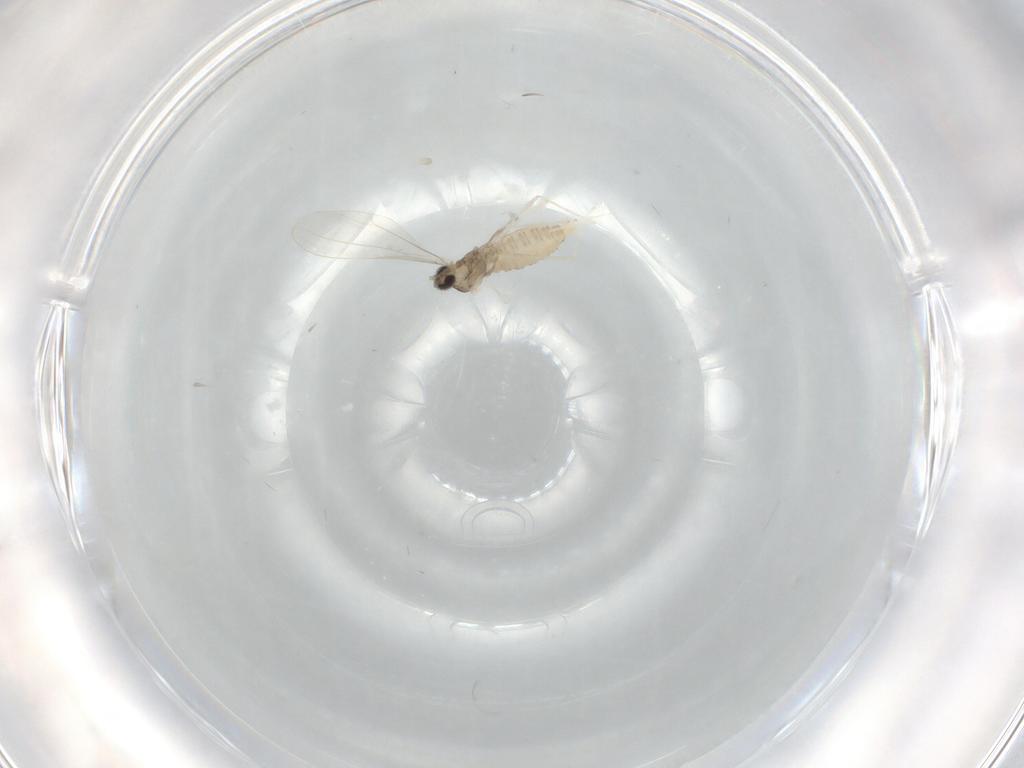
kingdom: Animalia
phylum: Arthropoda
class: Insecta
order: Diptera
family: Cecidomyiidae
